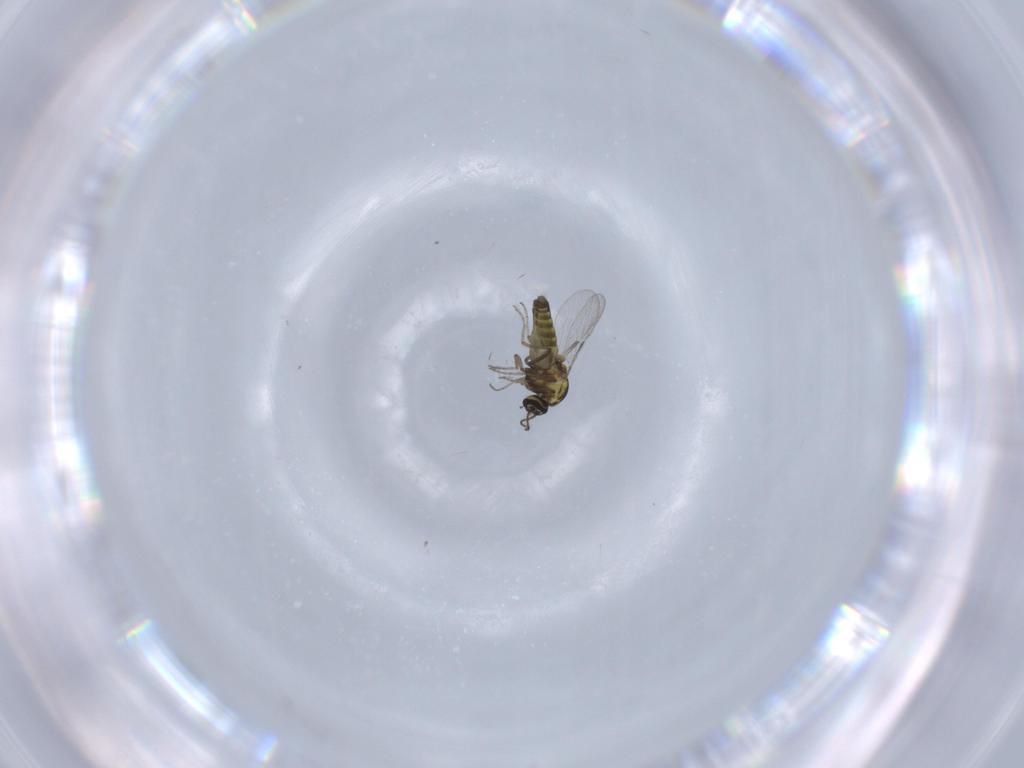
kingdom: Animalia
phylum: Arthropoda
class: Insecta
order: Diptera
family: Ceratopogonidae
